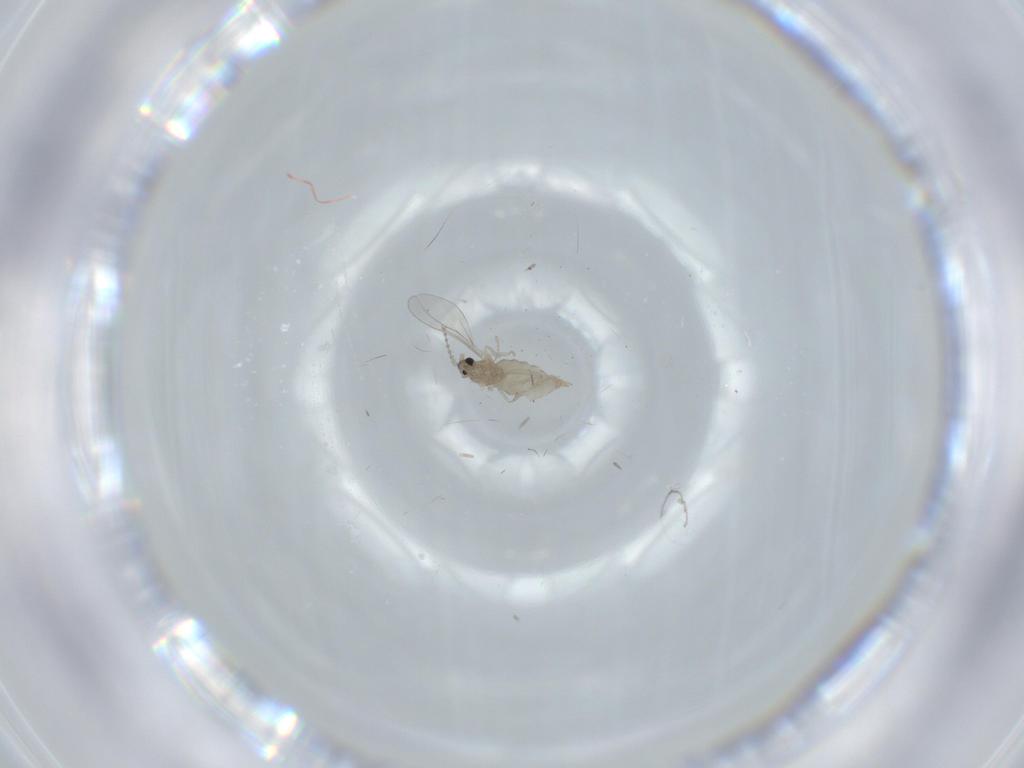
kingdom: Animalia
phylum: Arthropoda
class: Insecta
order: Diptera
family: Cecidomyiidae
